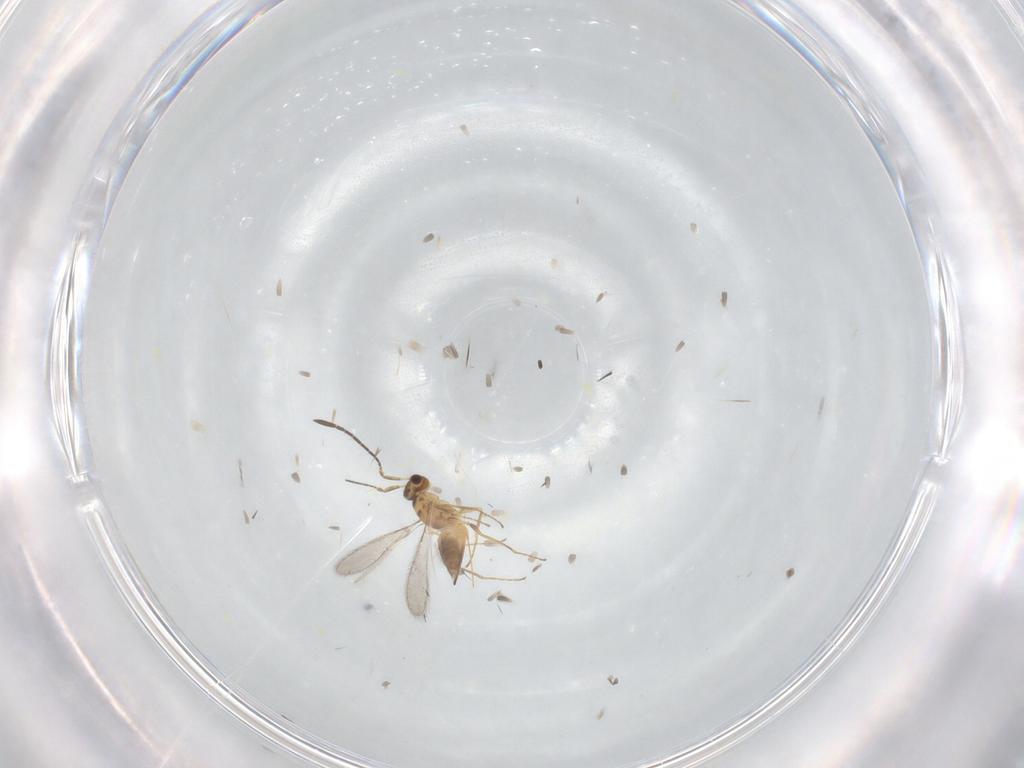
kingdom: Animalia
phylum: Arthropoda
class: Insecta
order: Hymenoptera
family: Mymaridae
